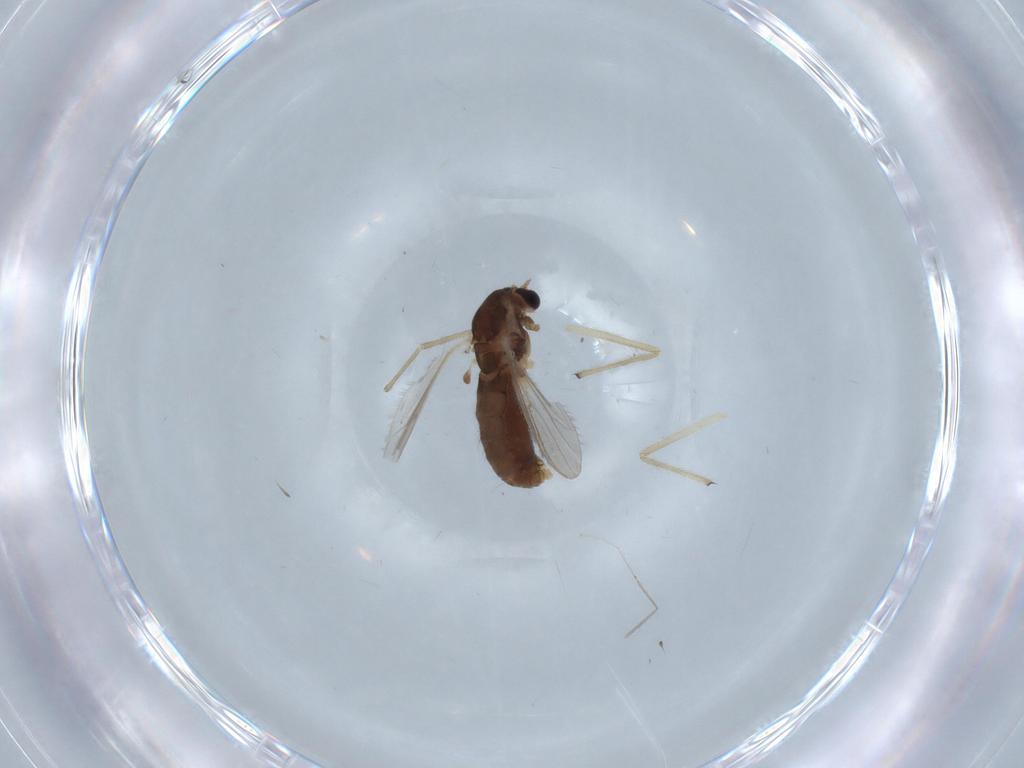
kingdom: Animalia
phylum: Arthropoda
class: Insecta
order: Diptera
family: Chironomidae
